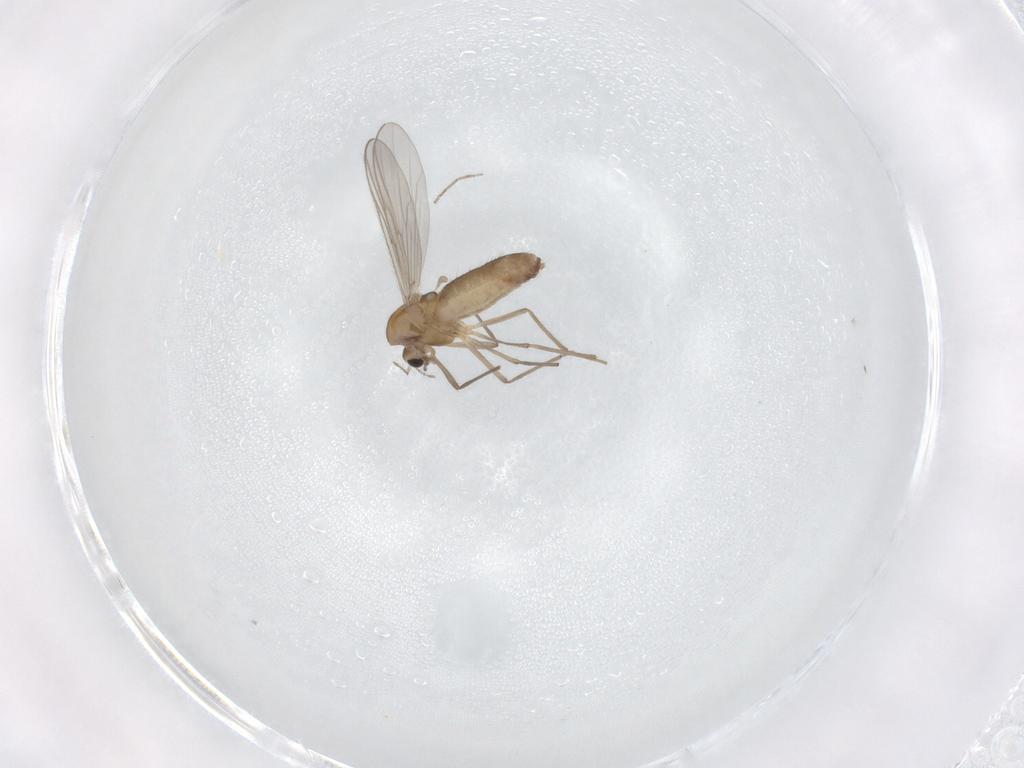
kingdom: Animalia
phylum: Arthropoda
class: Insecta
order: Diptera
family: Chironomidae
